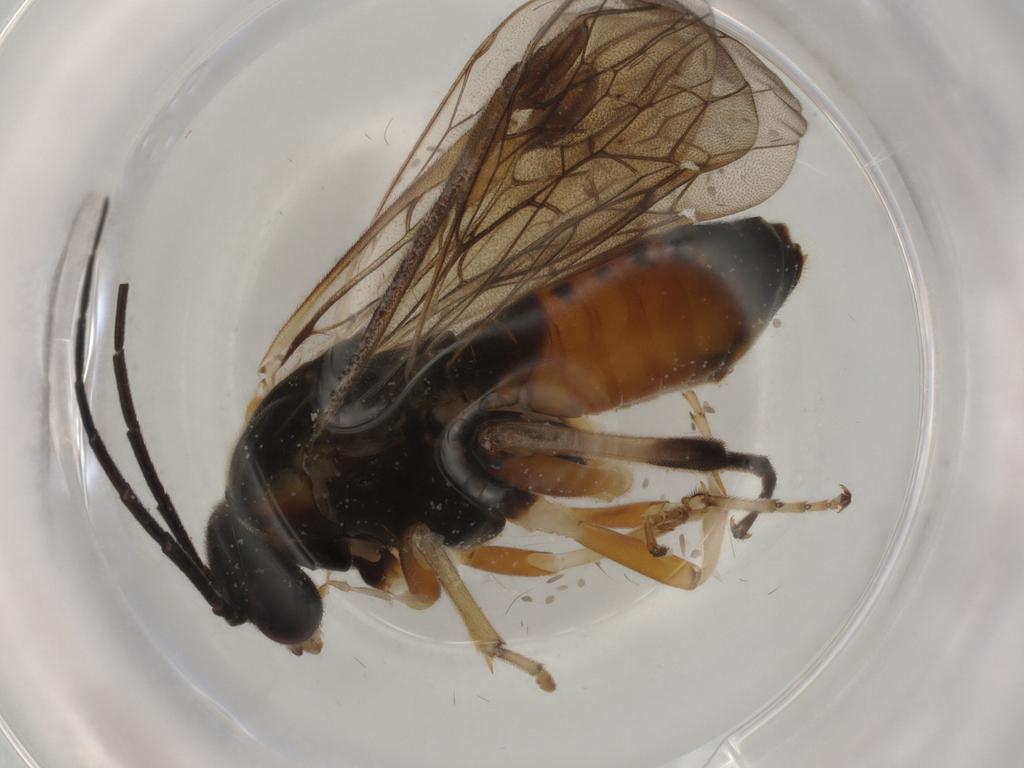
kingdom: Animalia
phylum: Arthropoda
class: Insecta
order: Hymenoptera
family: Tenthredinidae
